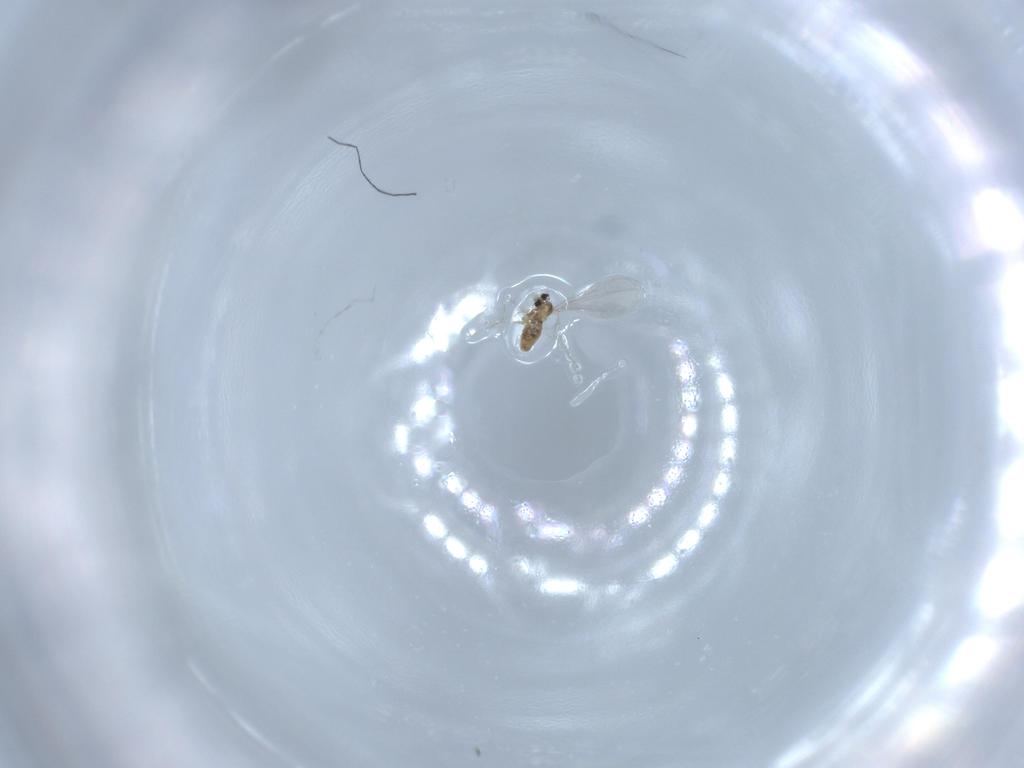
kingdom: Animalia
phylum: Arthropoda
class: Insecta
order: Diptera
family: Cecidomyiidae
